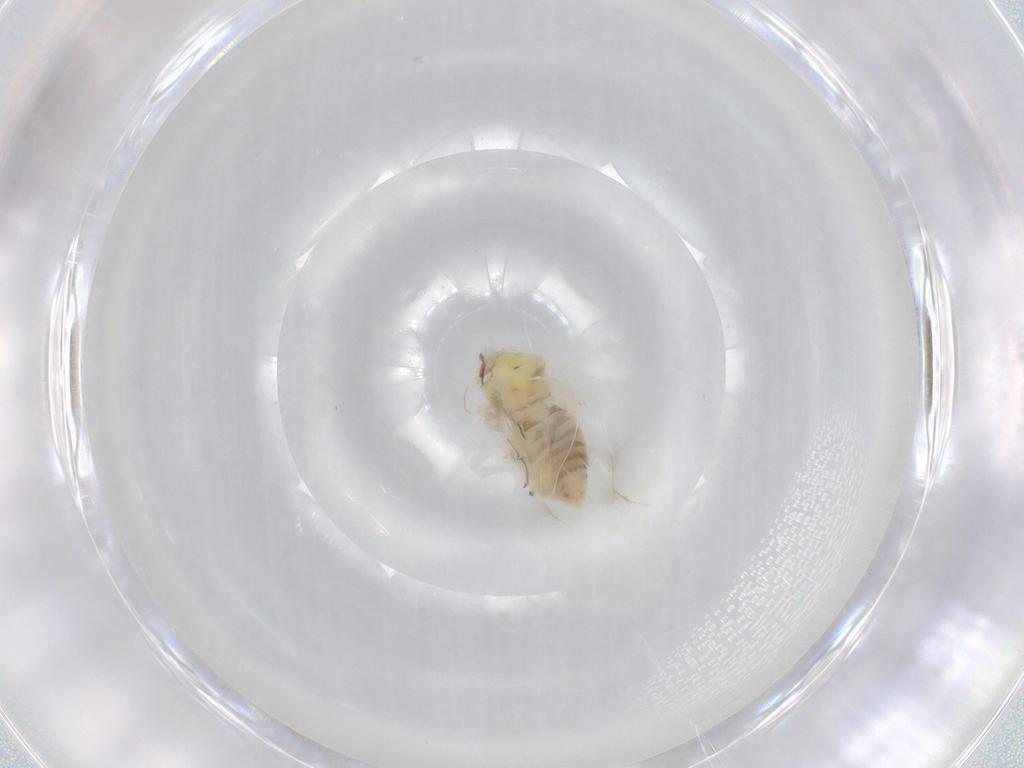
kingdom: Animalia
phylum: Arthropoda
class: Insecta
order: Hemiptera
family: Aleyrodidae
